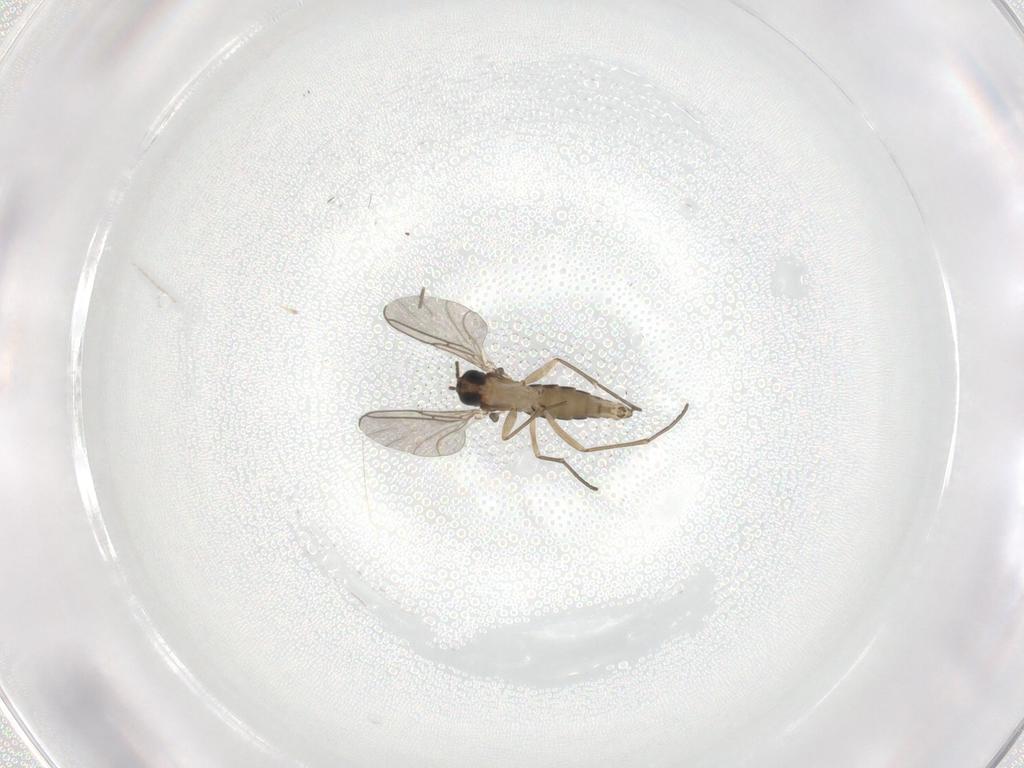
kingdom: Animalia
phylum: Arthropoda
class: Insecta
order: Diptera
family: Sciaridae
